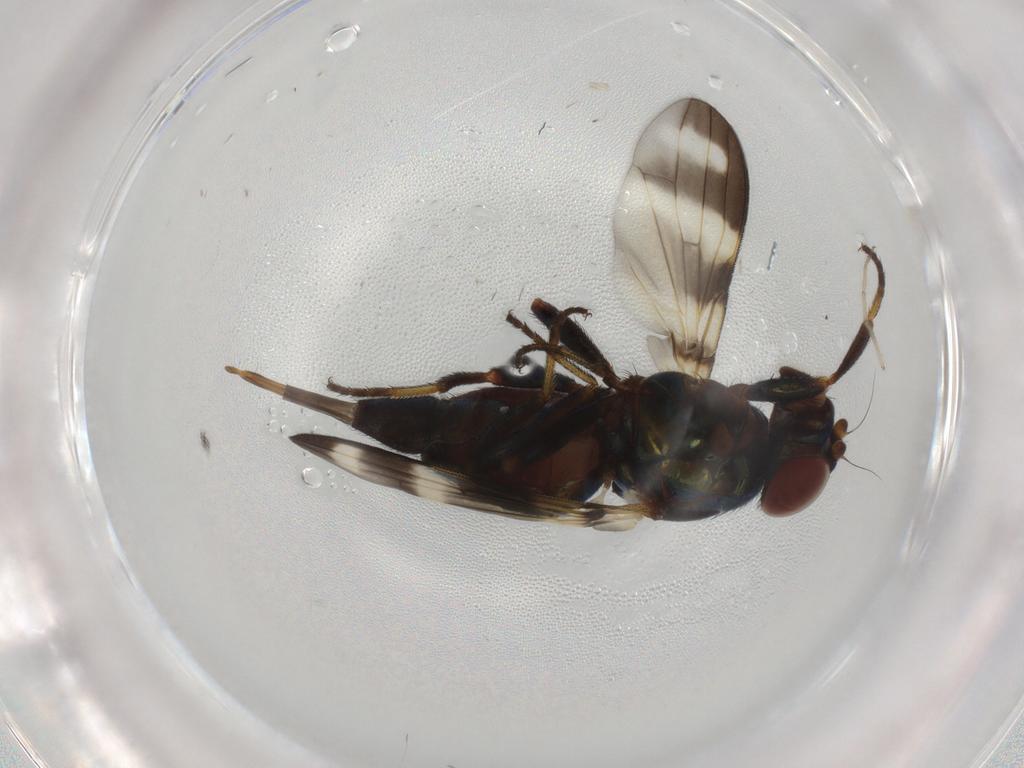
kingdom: Animalia
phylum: Arthropoda
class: Insecta
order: Diptera
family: Ulidiidae
